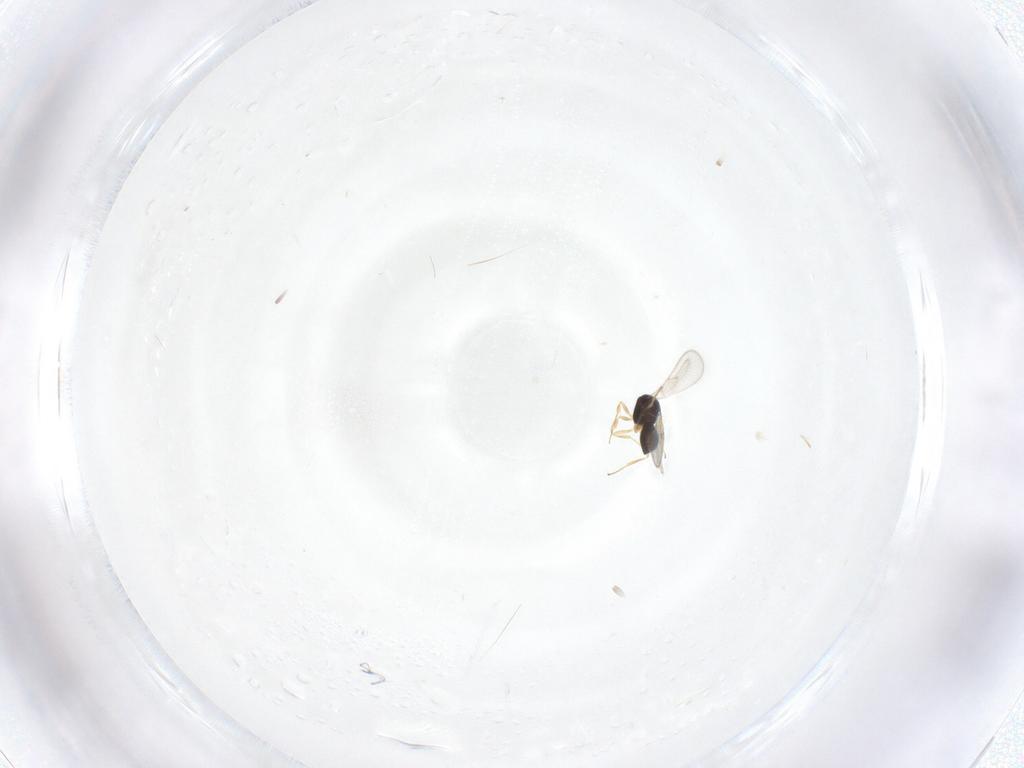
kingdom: Animalia
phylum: Arthropoda
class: Insecta
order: Hymenoptera
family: Scelionidae
